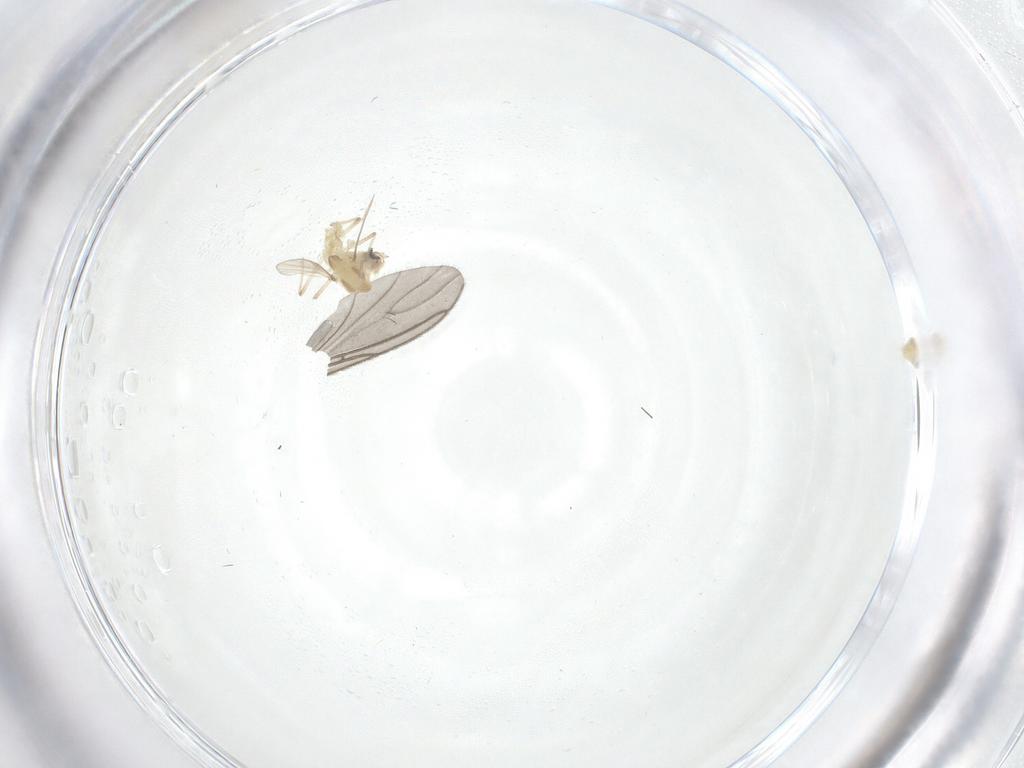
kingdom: Animalia
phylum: Arthropoda
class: Insecta
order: Diptera
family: Chironomidae
